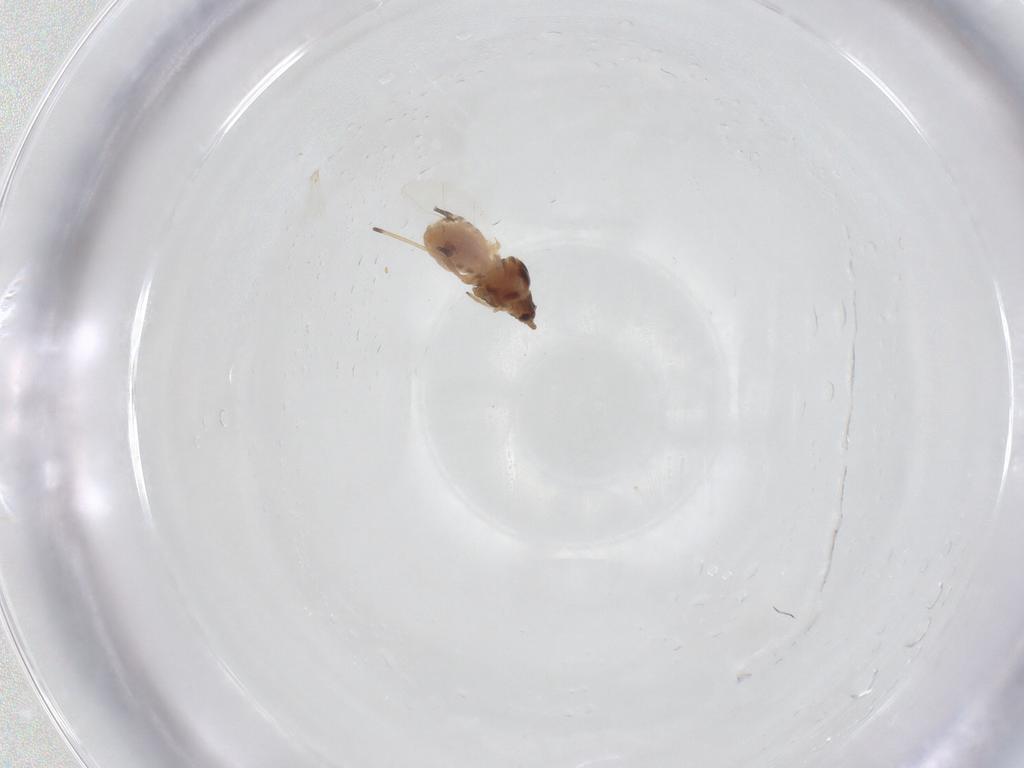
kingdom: Animalia
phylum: Arthropoda
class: Insecta
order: Hemiptera
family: Aphididae
